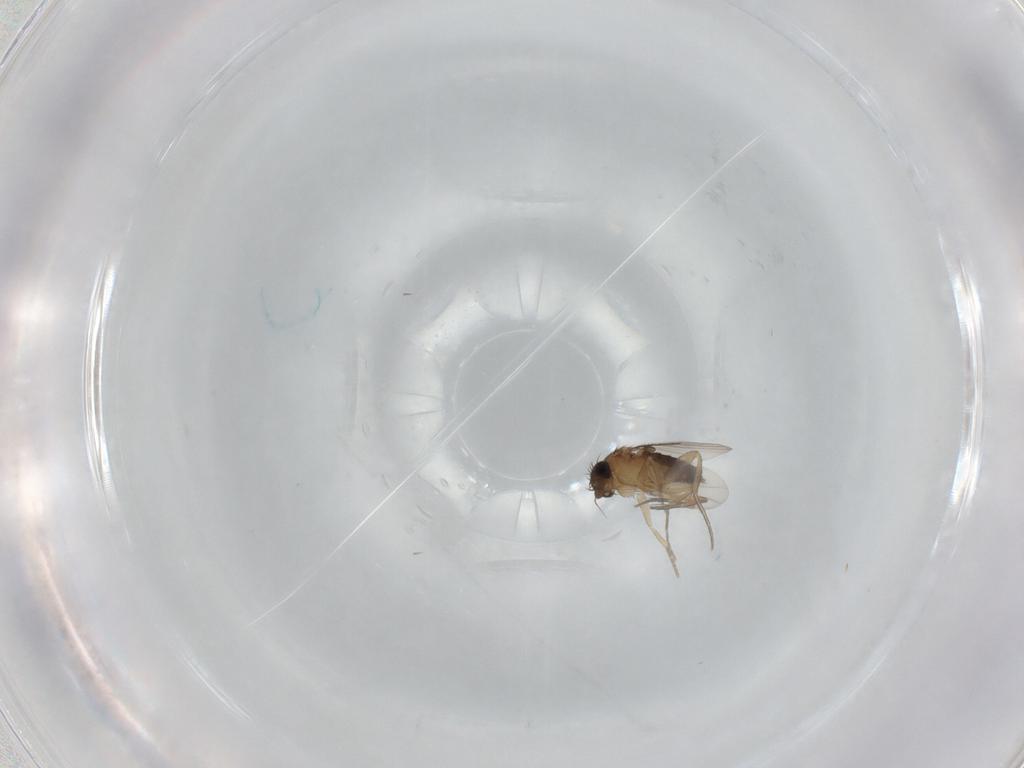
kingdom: Animalia
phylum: Arthropoda
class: Insecta
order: Diptera
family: Phoridae
